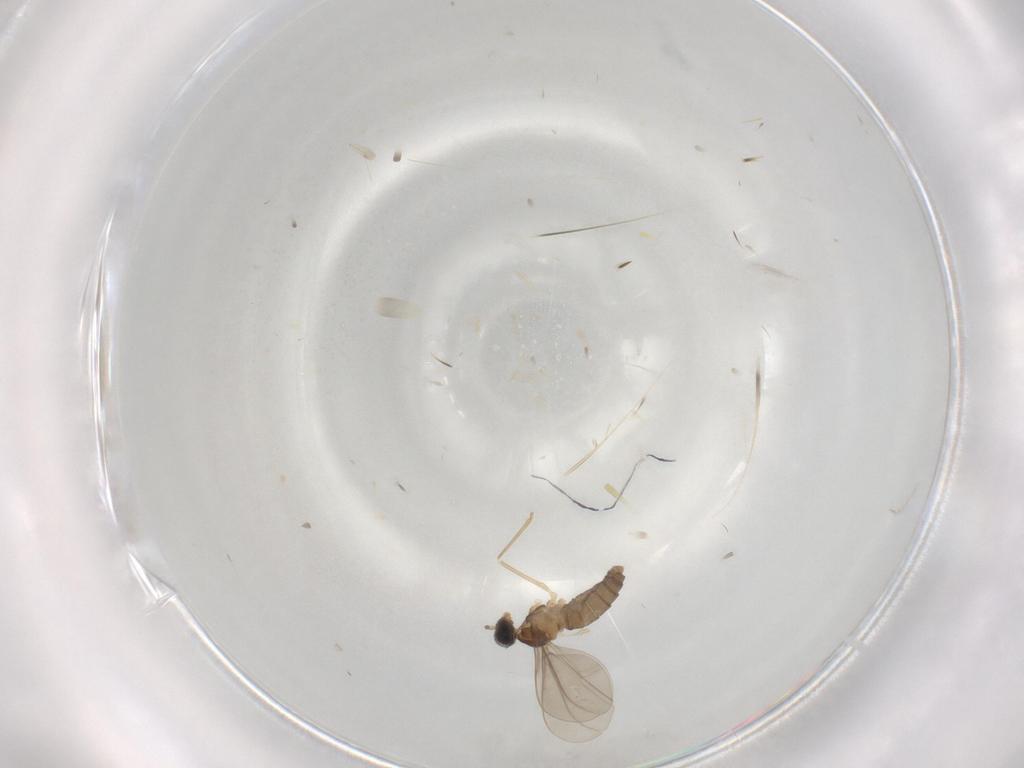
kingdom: Animalia
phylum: Arthropoda
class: Insecta
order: Diptera
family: Cecidomyiidae
